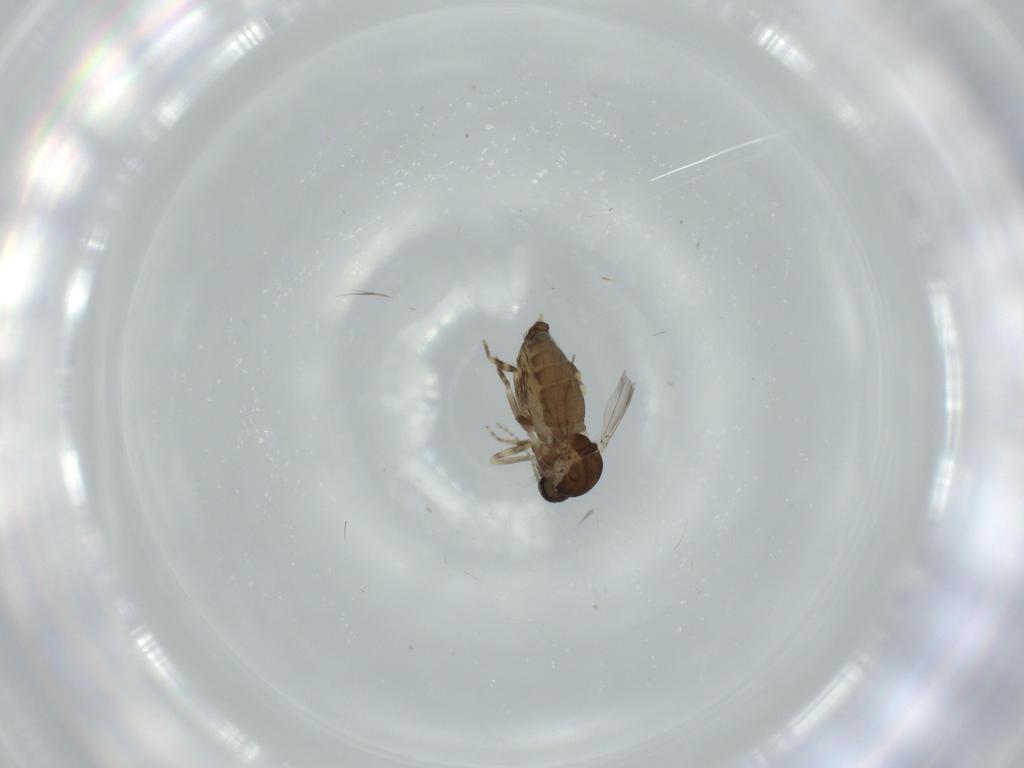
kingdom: Animalia
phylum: Arthropoda
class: Insecta
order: Diptera
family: Ceratopogonidae
